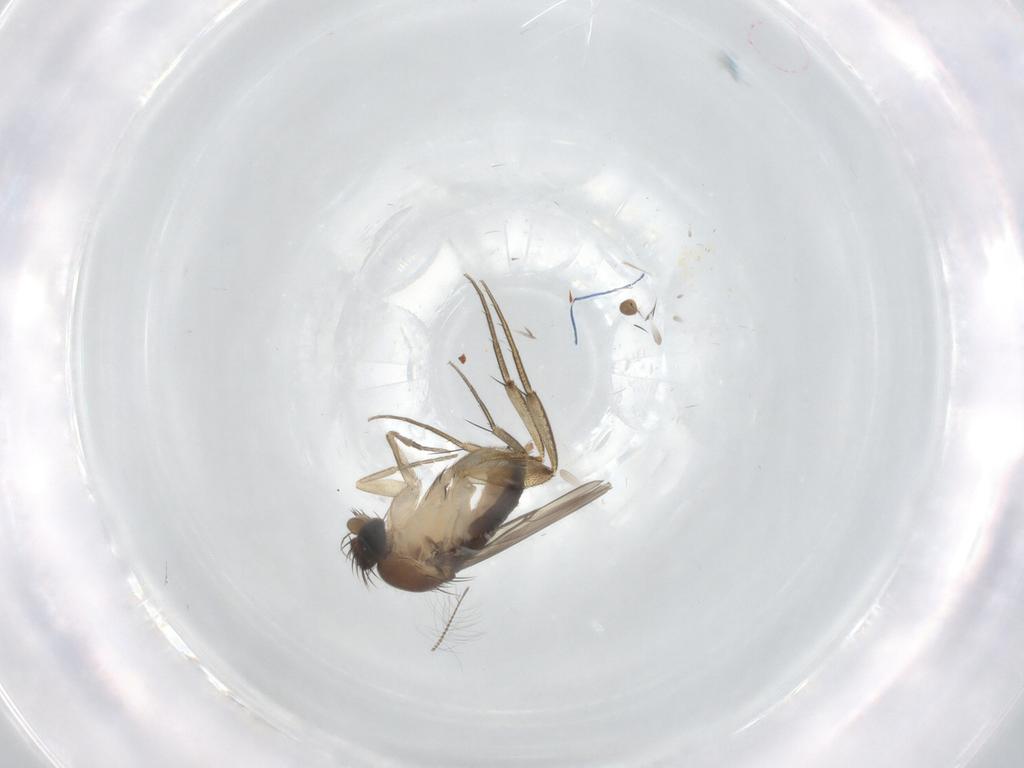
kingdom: Animalia
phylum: Arthropoda
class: Insecta
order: Diptera
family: Phoridae
